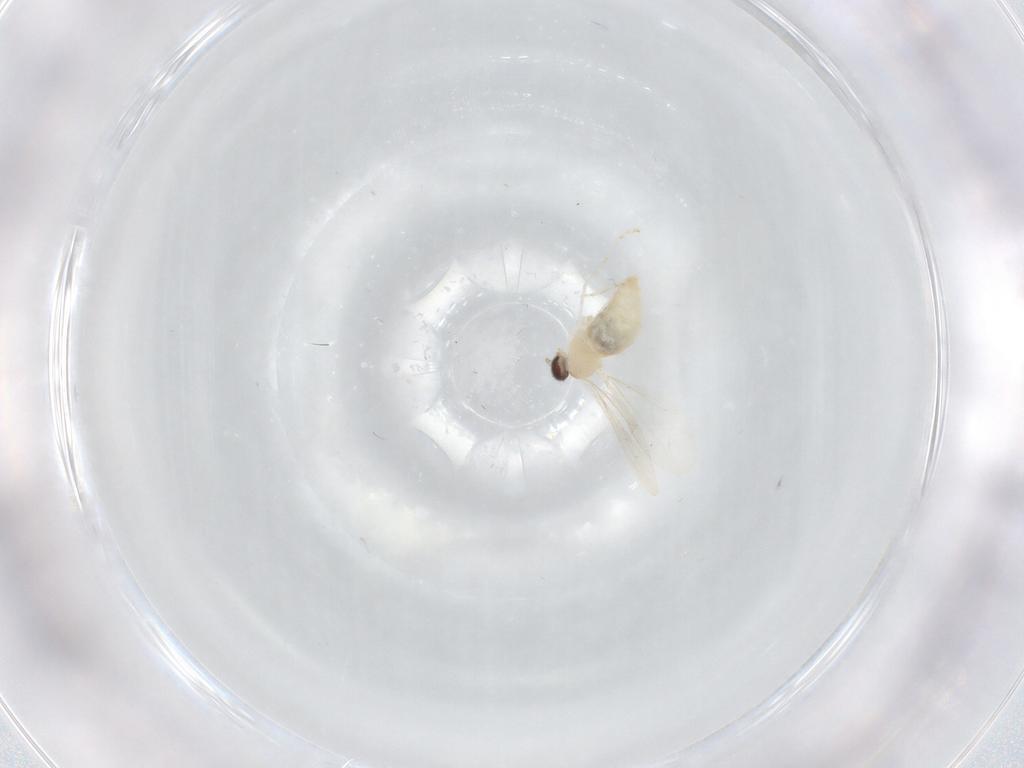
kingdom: Animalia
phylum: Arthropoda
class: Insecta
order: Diptera
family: Cecidomyiidae
